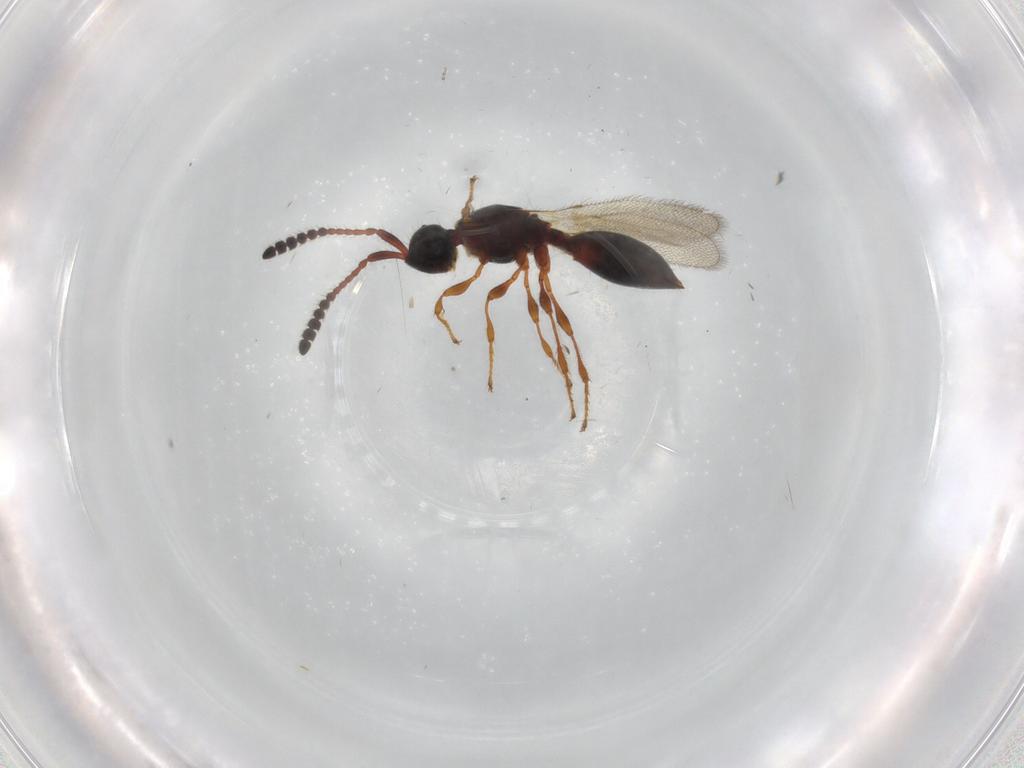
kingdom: Animalia
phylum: Arthropoda
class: Insecta
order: Hymenoptera
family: Diapriidae
